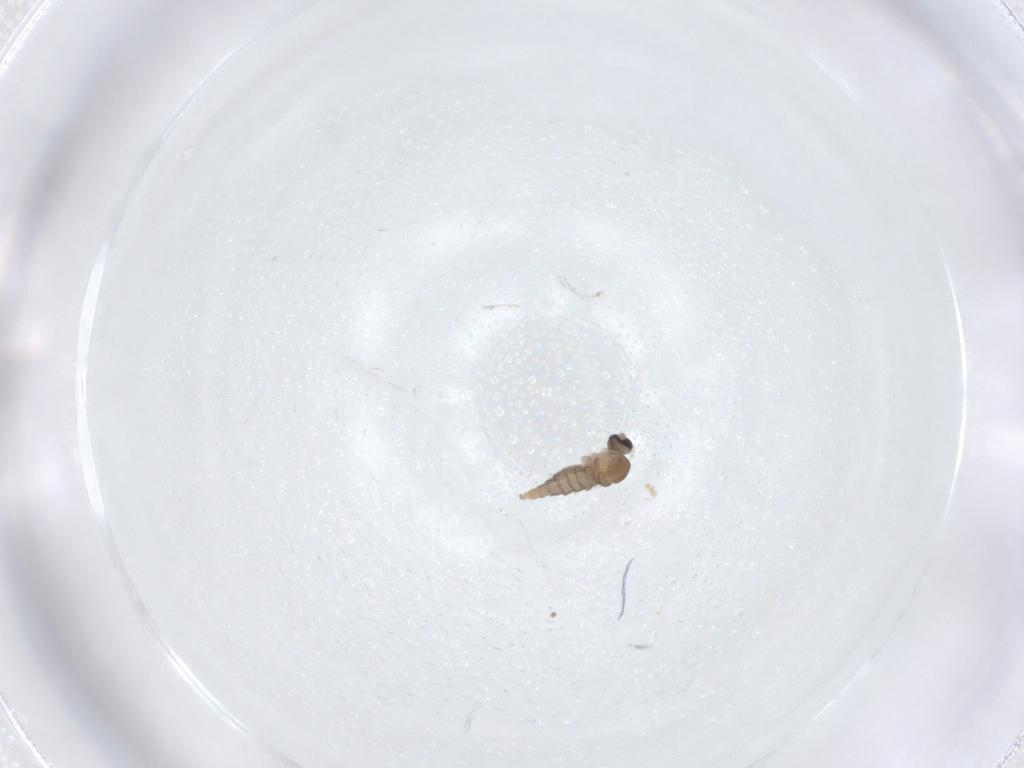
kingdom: Animalia
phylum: Arthropoda
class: Insecta
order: Diptera
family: Cecidomyiidae
